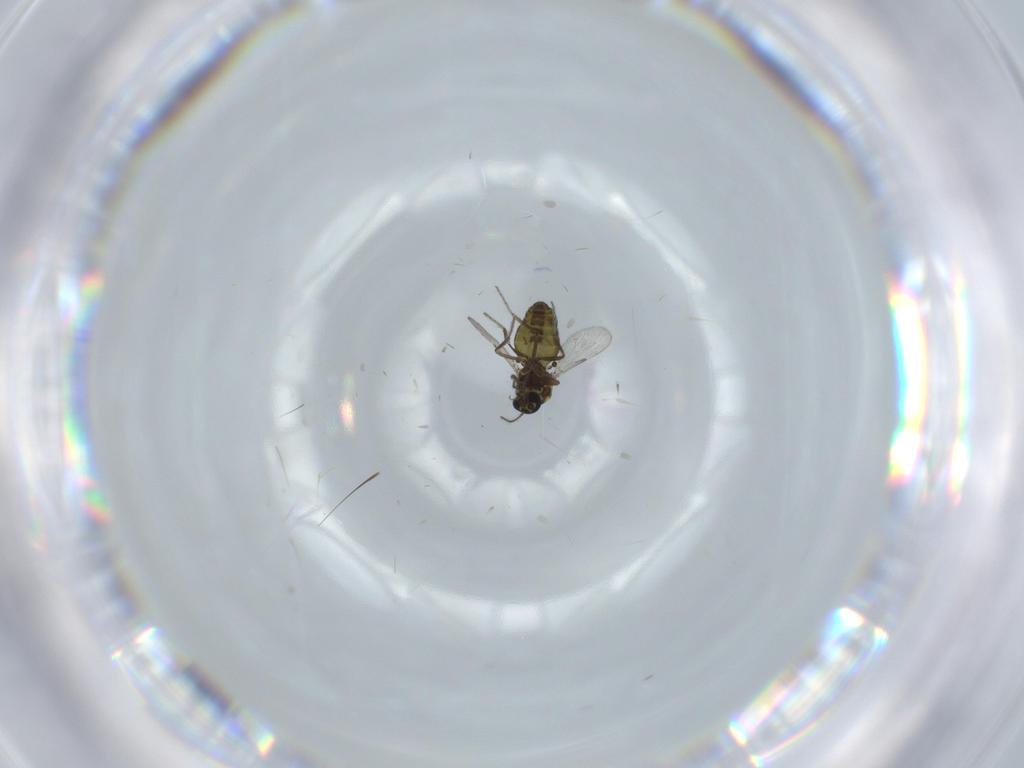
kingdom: Animalia
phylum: Arthropoda
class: Insecta
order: Diptera
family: Ceratopogonidae
